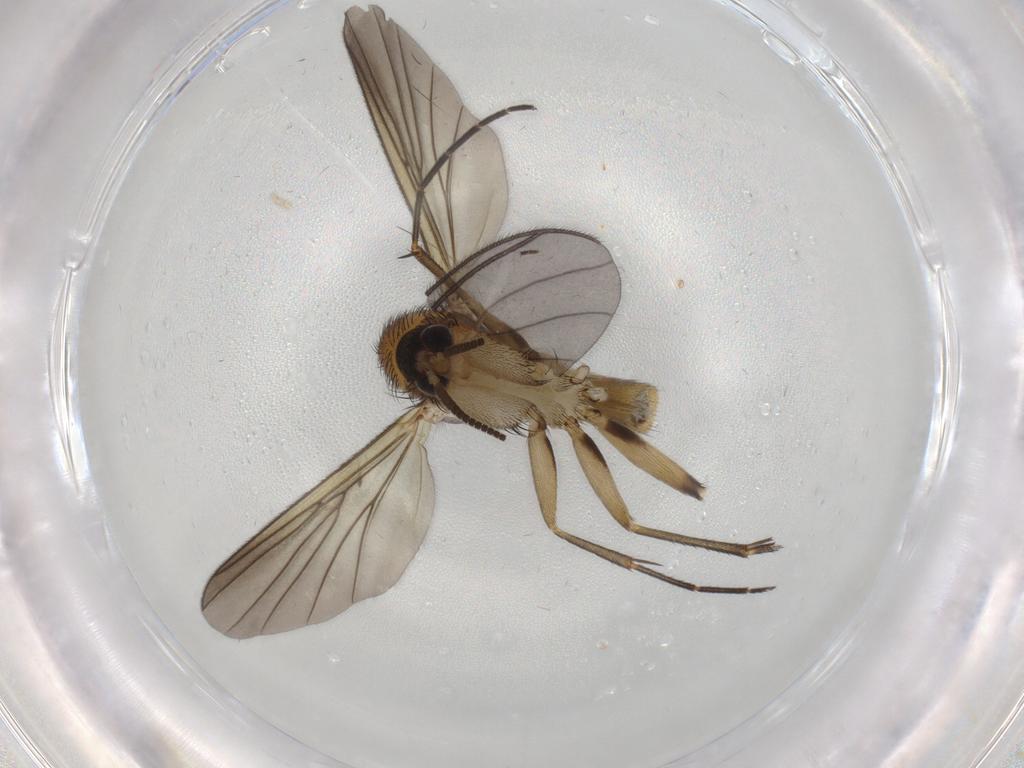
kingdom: Animalia
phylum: Arthropoda
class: Insecta
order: Diptera
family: Mycetophilidae
